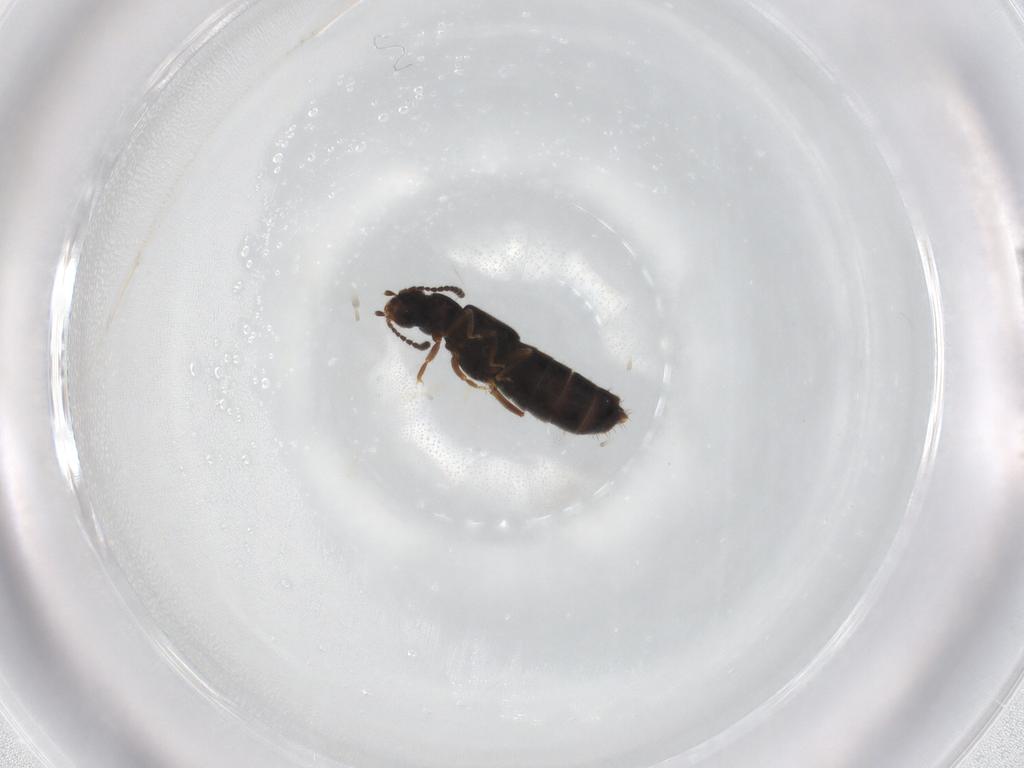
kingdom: Animalia
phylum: Arthropoda
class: Insecta
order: Coleoptera
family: Staphylinidae
